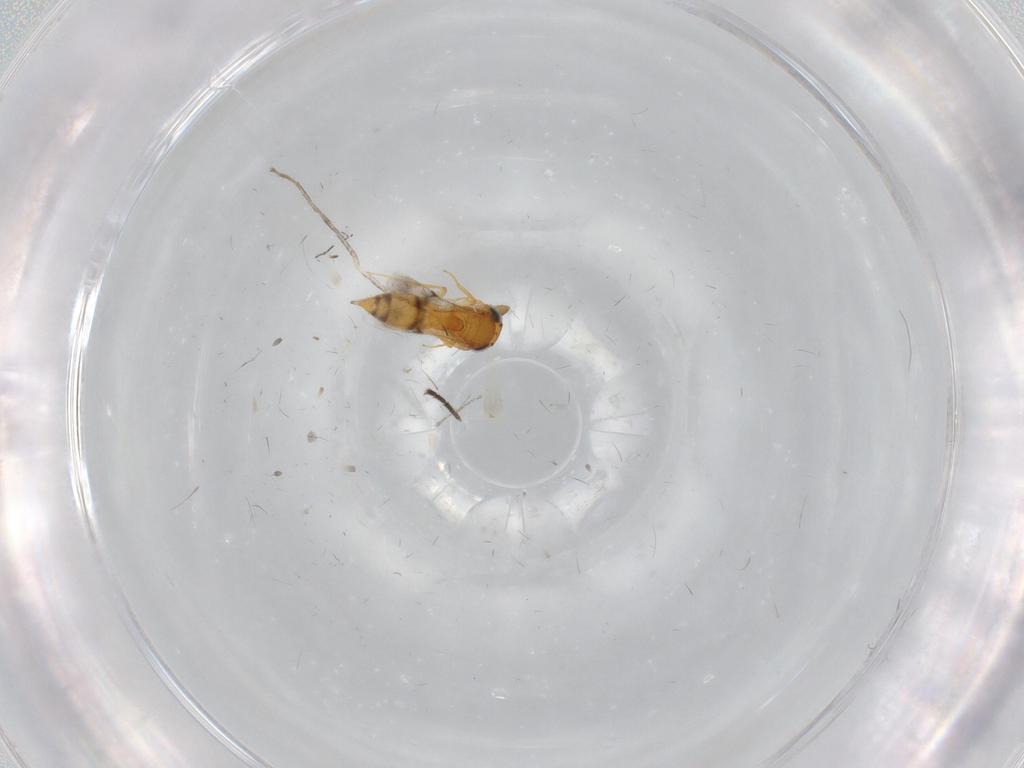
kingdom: Animalia
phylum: Arthropoda
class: Insecta
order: Hymenoptera
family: Scelionidae
